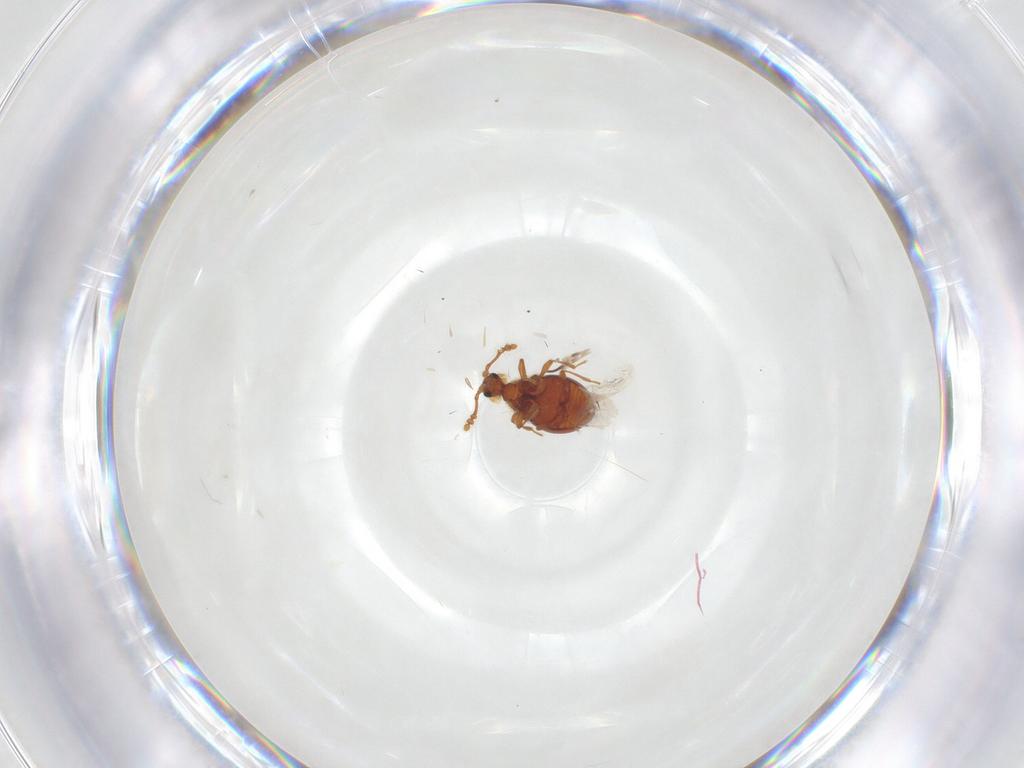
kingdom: Animalia
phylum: Arthropoda
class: Insecta
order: Coleoptera
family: Staphylinidae
